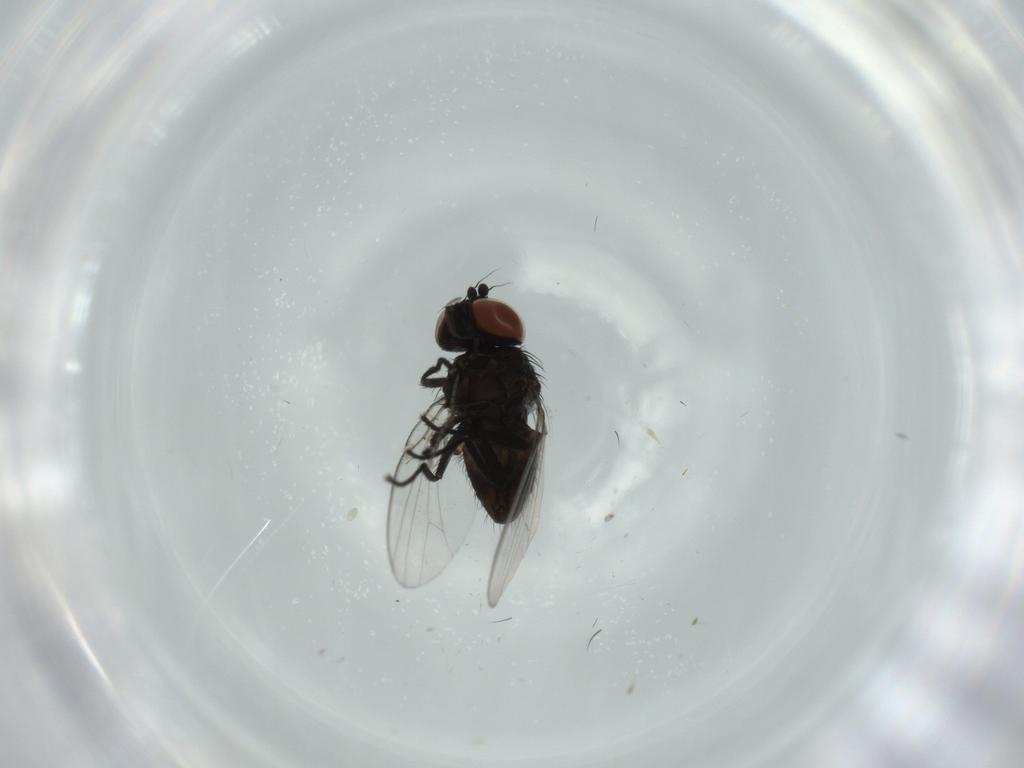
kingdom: Animalia
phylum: Arthropoda
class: Insecta
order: Diptera
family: Milichiidae
